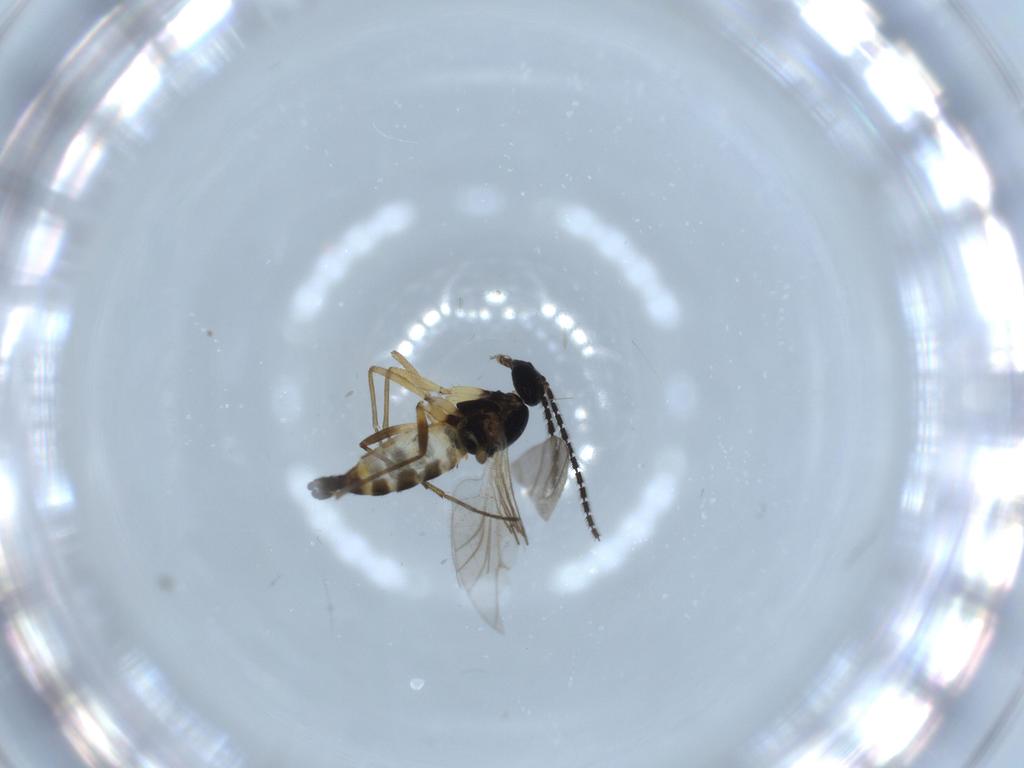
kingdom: Animalia
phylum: Arthropoda
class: Insecta
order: Diptera
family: Sciaridae
